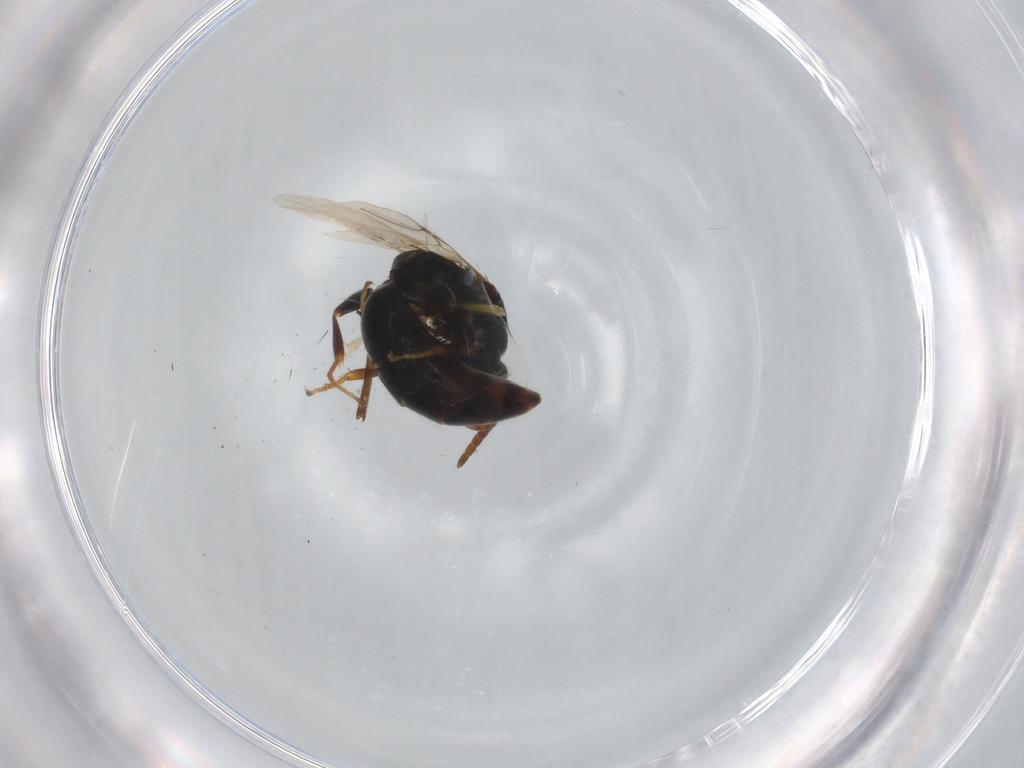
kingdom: Animalia
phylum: Arthropoda
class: Insecta
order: Hymenoptera
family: Bethylidae
